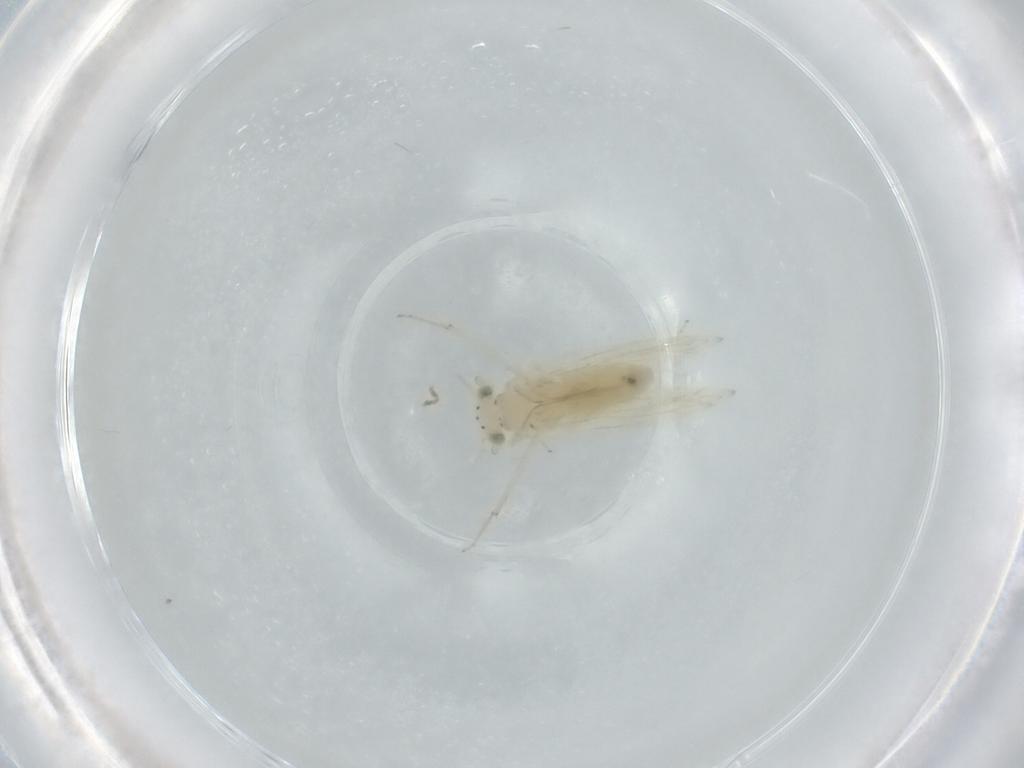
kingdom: Animalia
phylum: Arthropoda
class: Insecta
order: Psocodea
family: Lepidopsocidae
